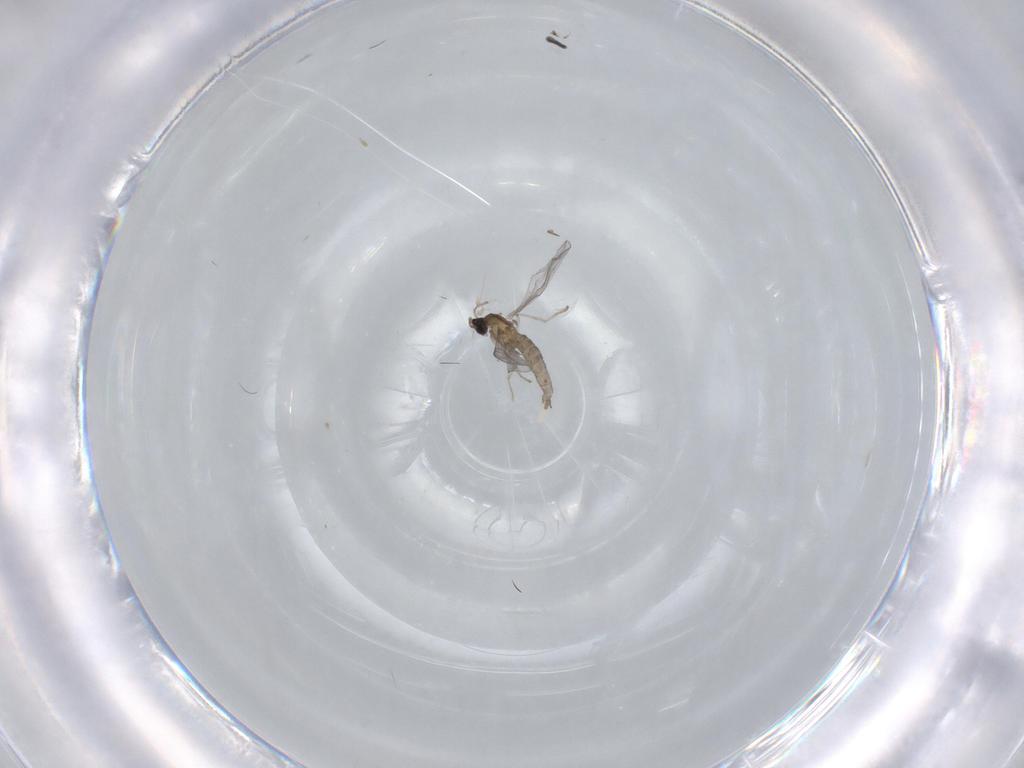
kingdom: Animalia
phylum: Arthropoda
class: Insecta
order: Diptera
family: Cecidomyiidae
